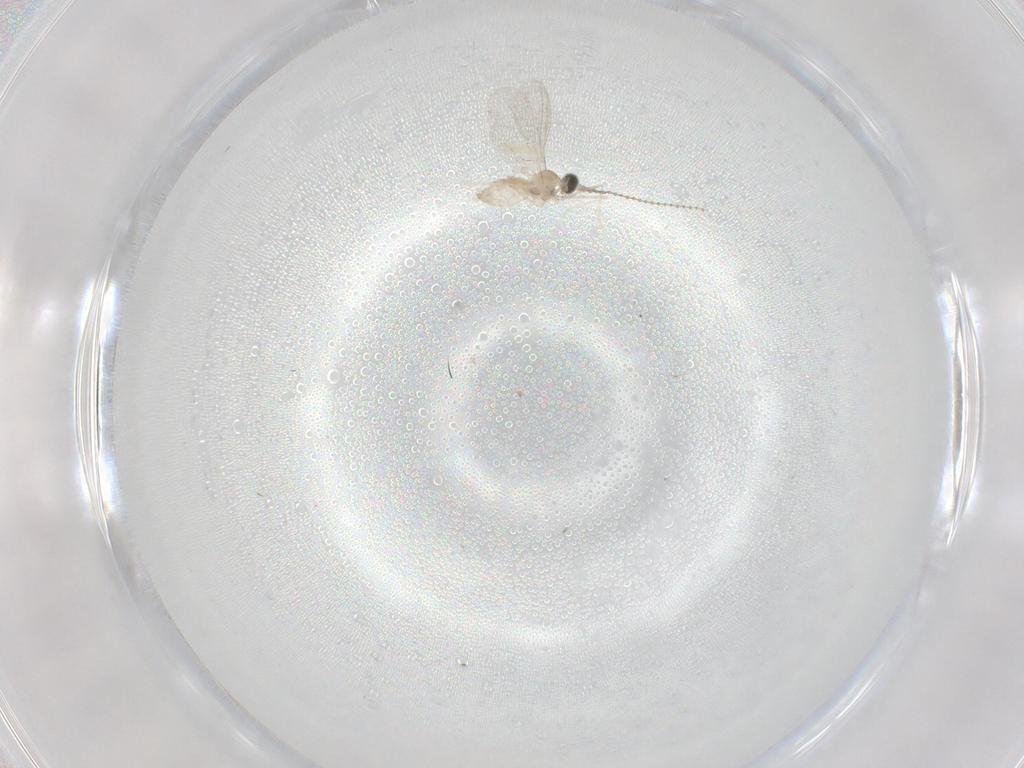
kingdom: Animalia
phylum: Arthropoda
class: Insecta
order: Diptera
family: Cecidomyiidae
